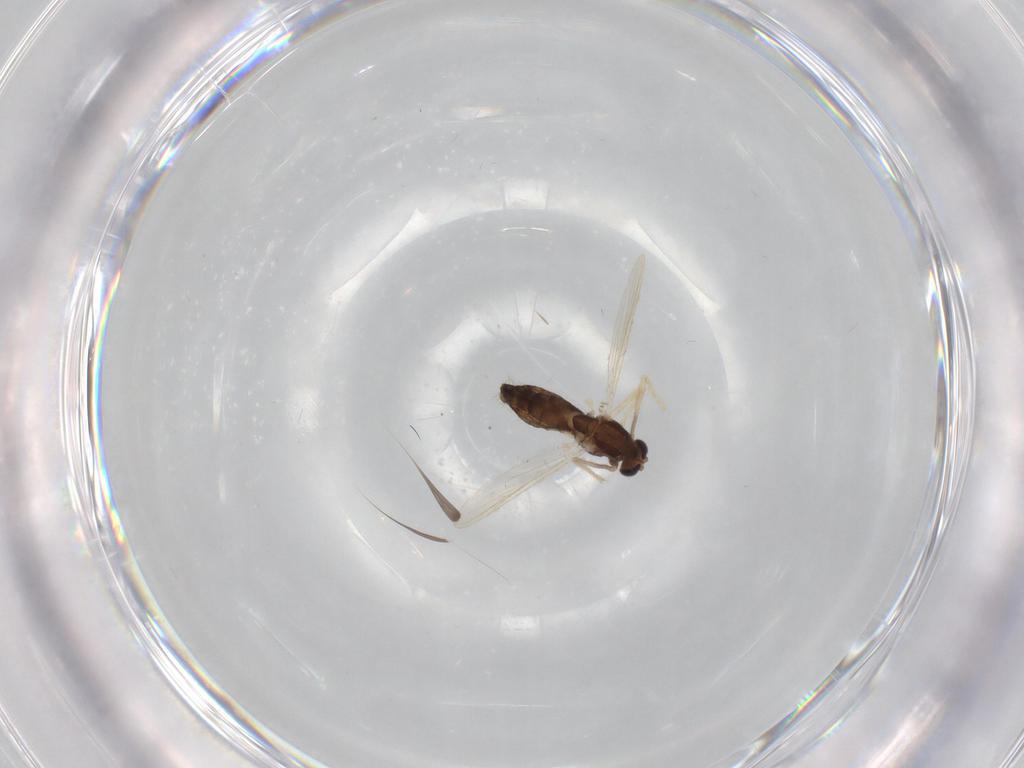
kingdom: Animalia
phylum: Arthropoda
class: Insecta
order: Diptera
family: Chironomidae
